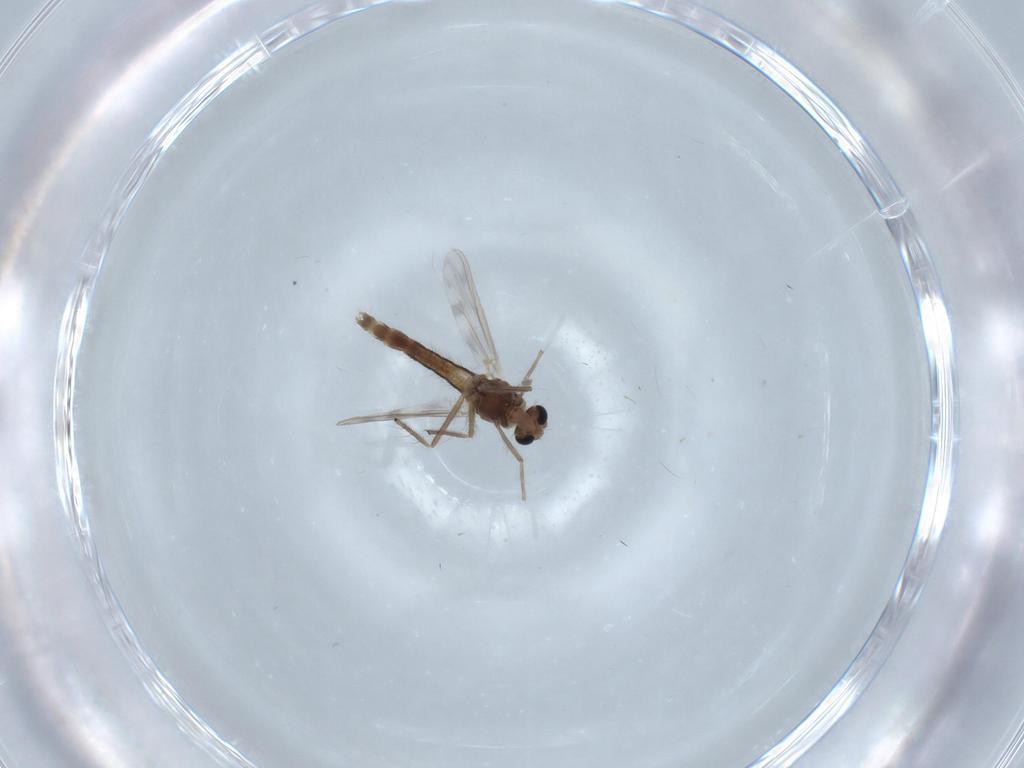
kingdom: Animalia
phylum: Arthropoda
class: Insecta
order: Diptera
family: Chironomidae
